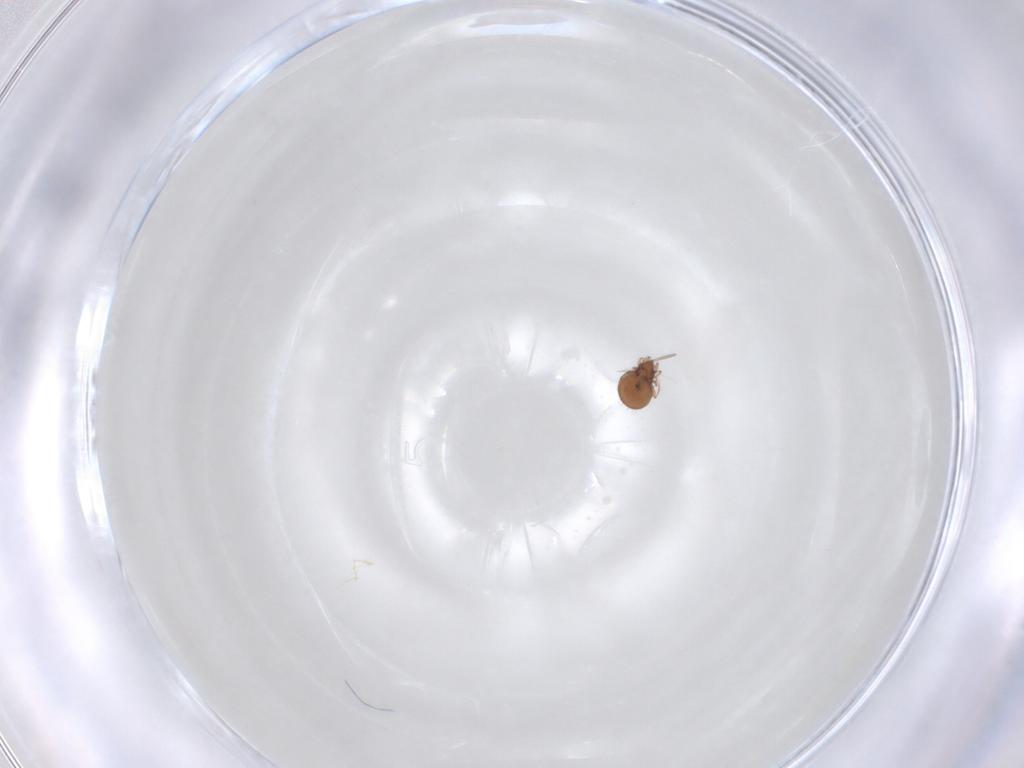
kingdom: Animalia
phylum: Arthropoda
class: Arachnida
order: Sarcoptiformes
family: Oribatulidae
